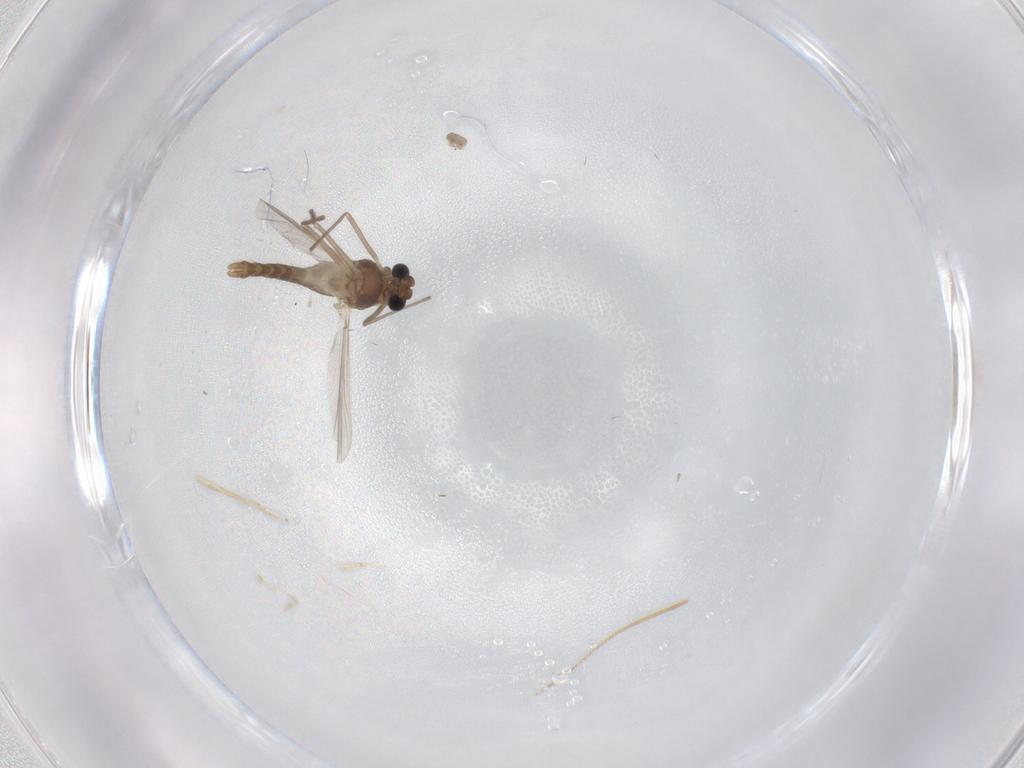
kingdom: Animalia
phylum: Arthropoda
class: Insecta
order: Diptera
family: Chironomidae
